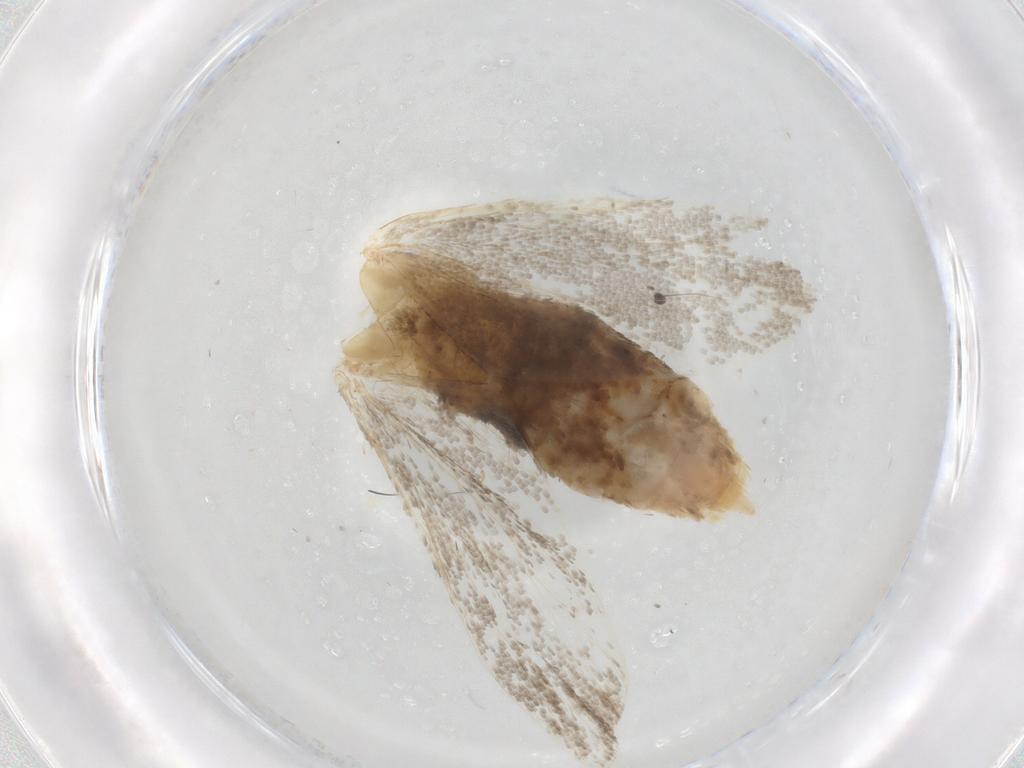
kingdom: Animalia
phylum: Arthropoda
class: Insecta
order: Lepidoptera
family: Lecithoceridae
